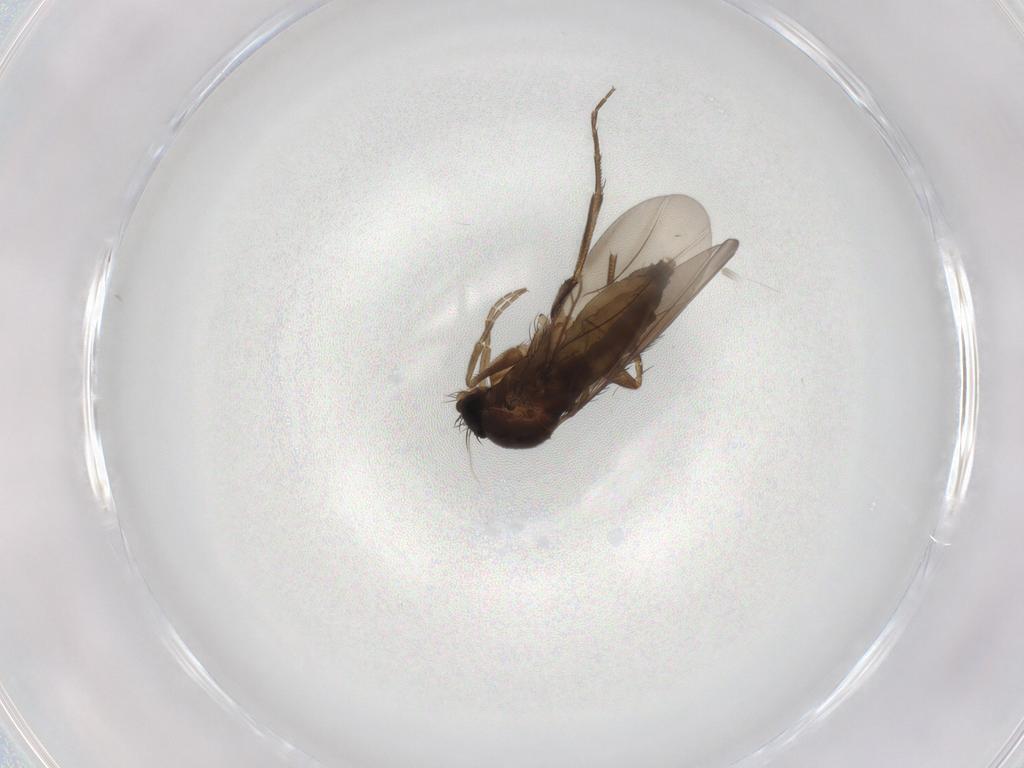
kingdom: Animalia
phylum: Arthropoda
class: Insecta
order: Diptera
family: Phoridae
